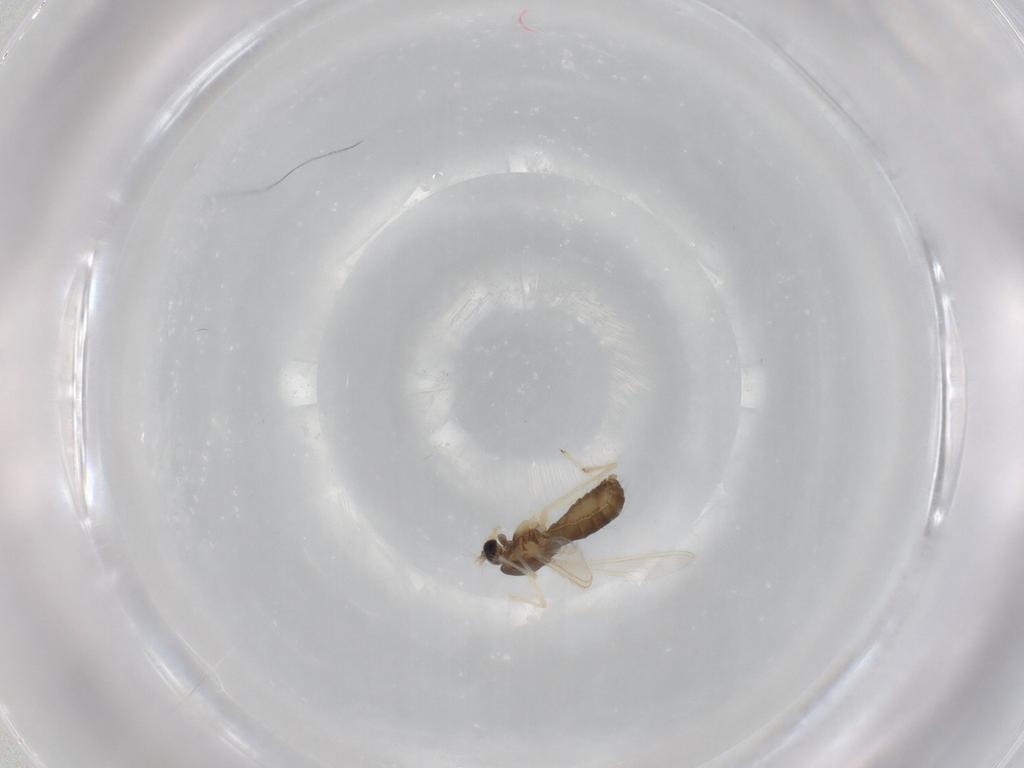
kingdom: Animalia
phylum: Arthropoda
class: Insecta
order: Diptera
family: Chironomidae
